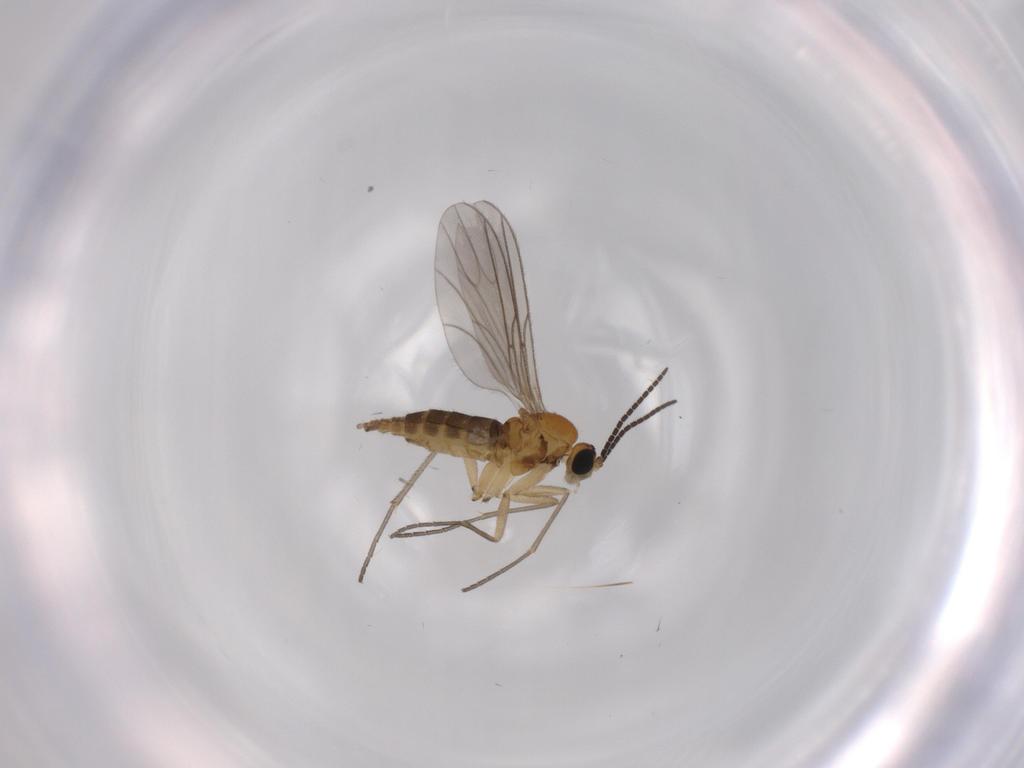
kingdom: Animalia
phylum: Arthropoda
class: Insecta
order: Diptera
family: Sciaridae
